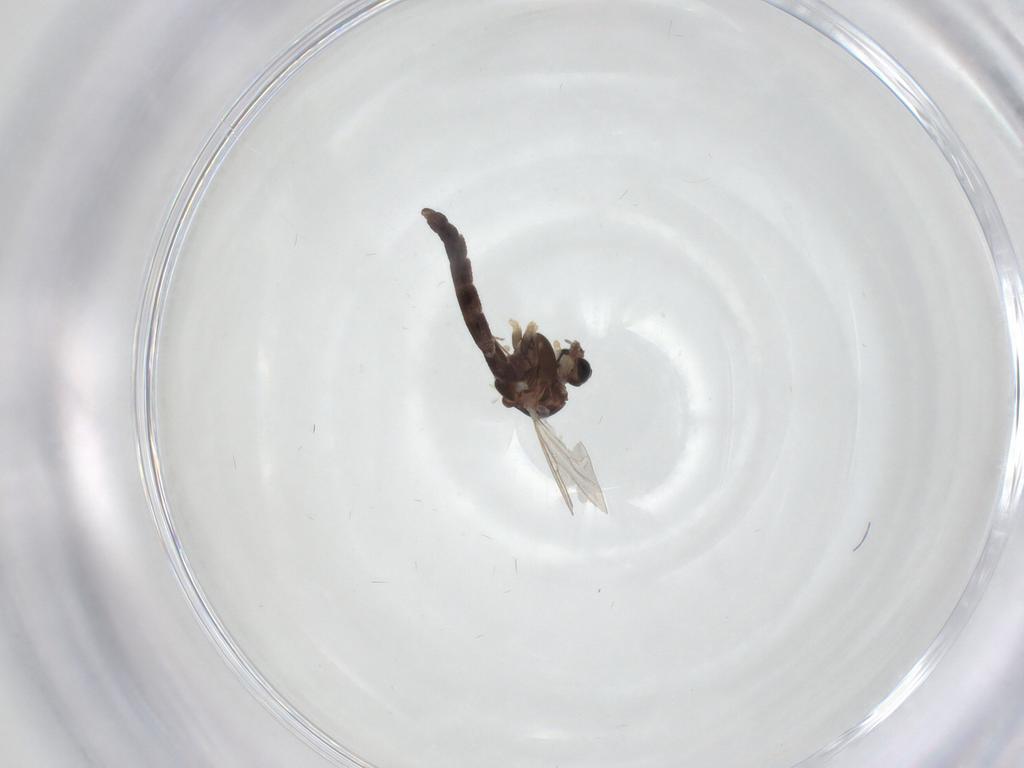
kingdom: Animalia
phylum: Arthropoda
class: Insecta
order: Diptera
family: Chironomidae
